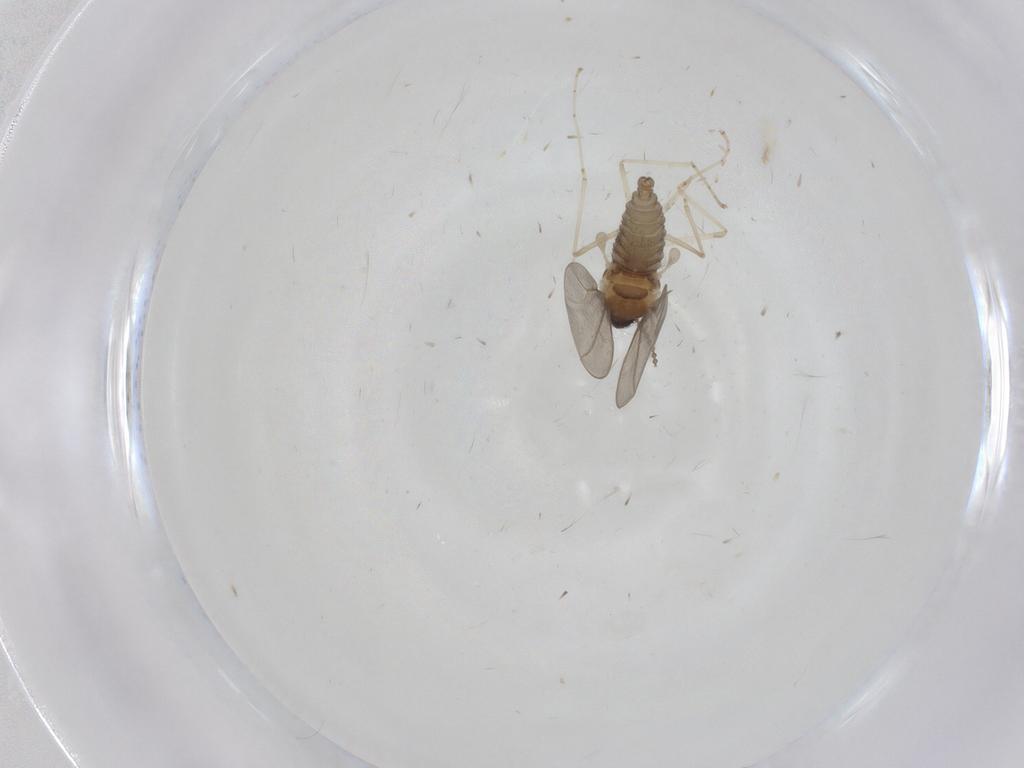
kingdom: Animalia
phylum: Arthropoda
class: Insecta
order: Diptera
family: Cecidomyiidae
